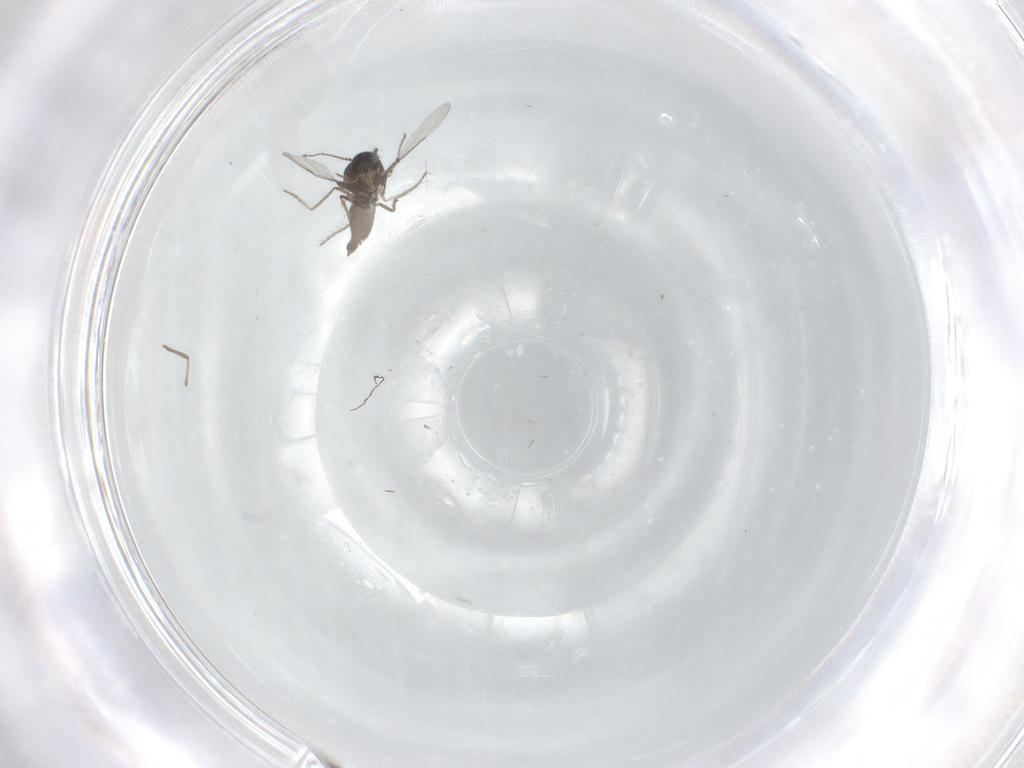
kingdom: Animalia
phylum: Arthropoda
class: Insecta
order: Diptera
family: Ceratopogonidae
